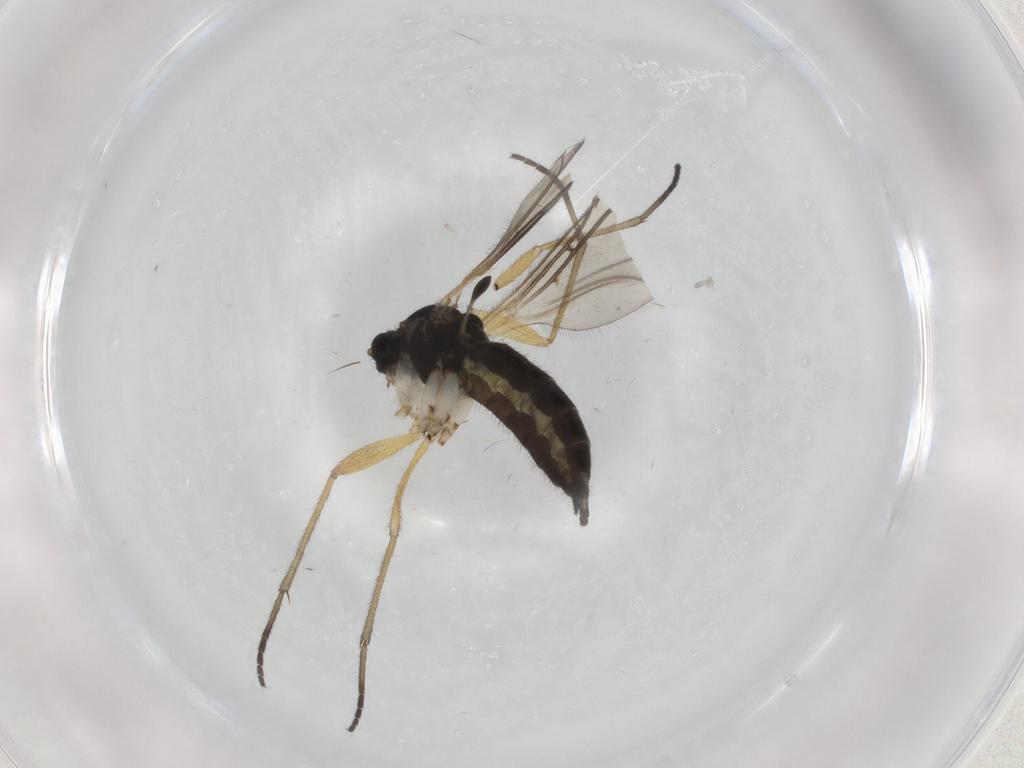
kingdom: Animalia
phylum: Arthropoda
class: Insecta
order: Diptera
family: Sciaridae
